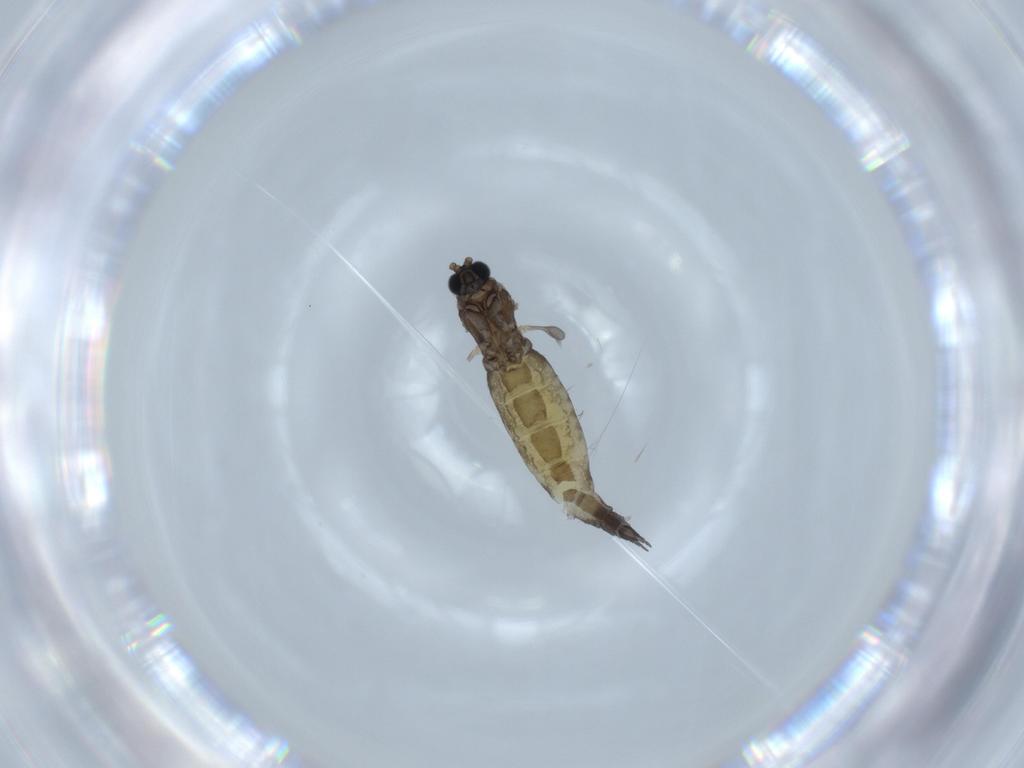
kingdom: Animalia
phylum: Arthropoda
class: Insecta
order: Diptera
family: Sciaridae
